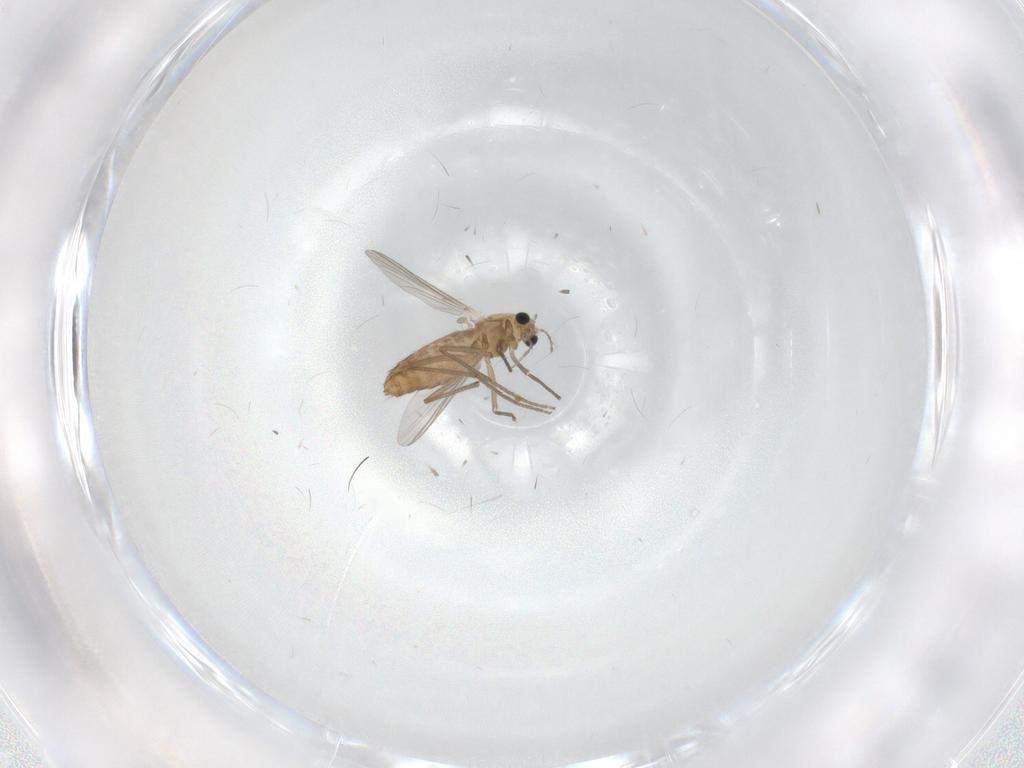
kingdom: Animalia
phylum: Arthropoda
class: Insecta
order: Diptera
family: Chironomidae
